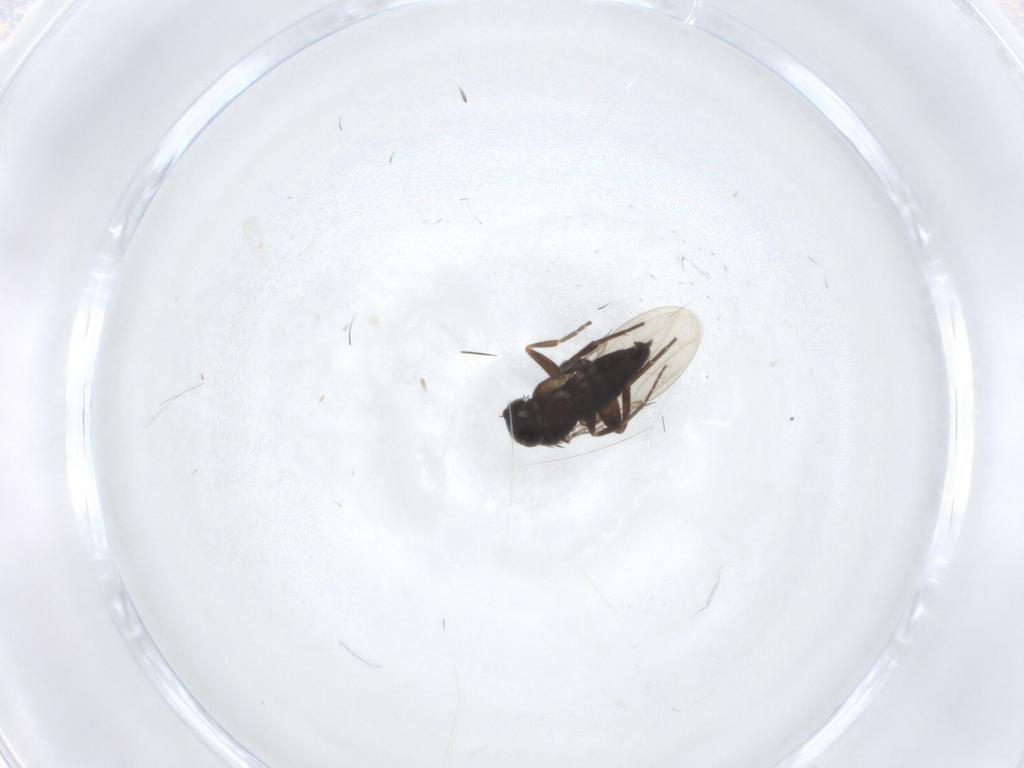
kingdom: Animalia
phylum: Arthropoda
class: Insecta
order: Diptera
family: Phoridae
